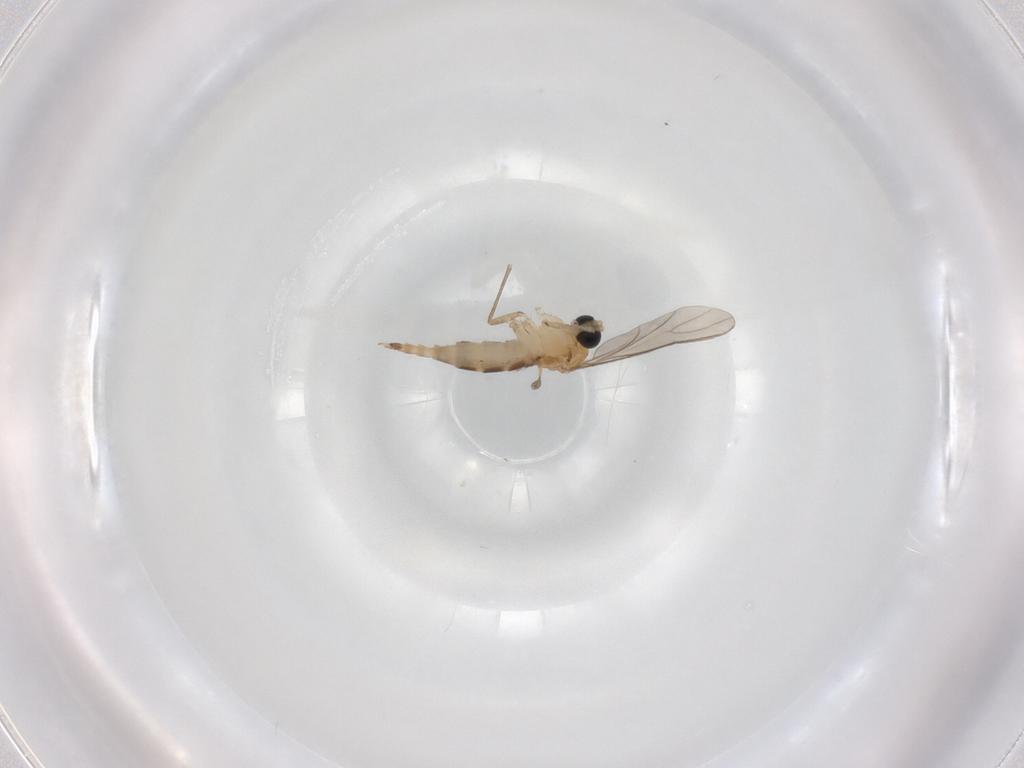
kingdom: Animalia
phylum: Arthropoda
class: Insecta
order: Diptera
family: Sciaridae
